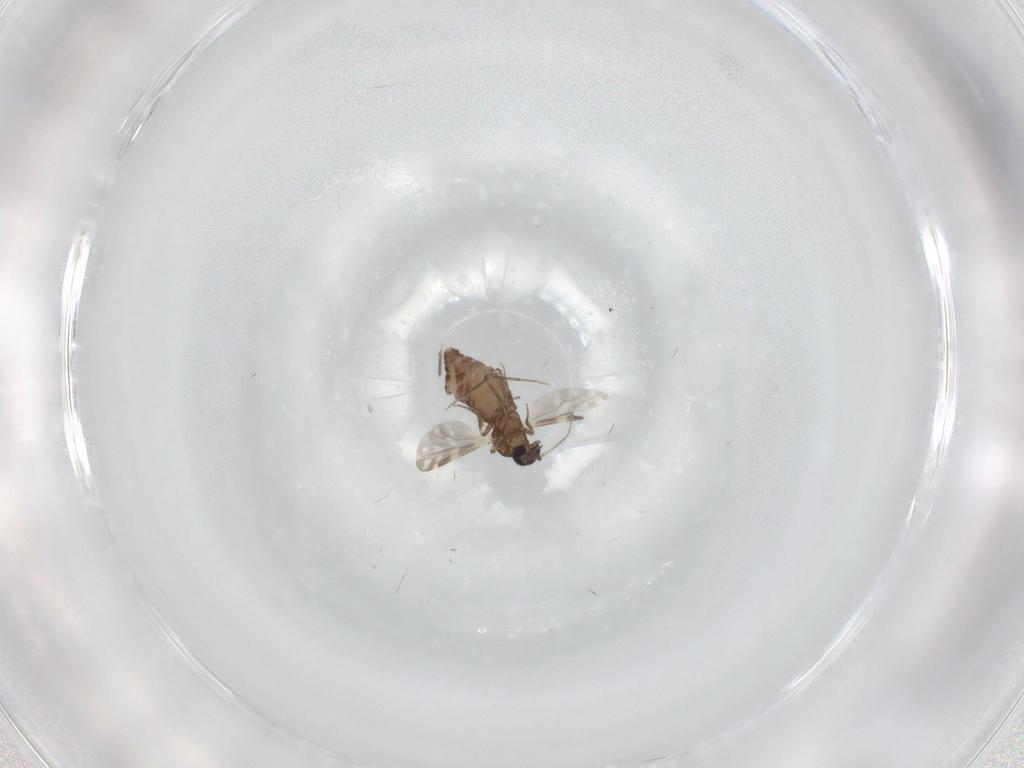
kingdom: Animalia
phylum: Arthropoda
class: Insecta
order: Diptera
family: Ceratopogonidae
